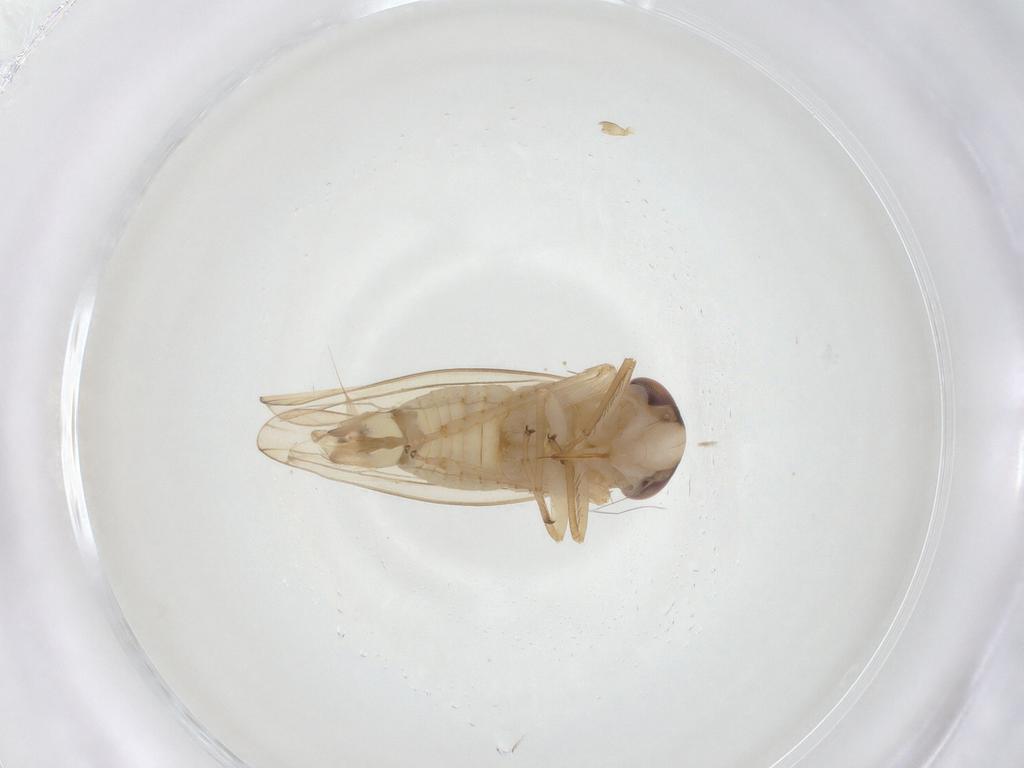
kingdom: Animalia
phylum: Arthropoda
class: Insecta
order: Hemiptera
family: Cicadellidae
